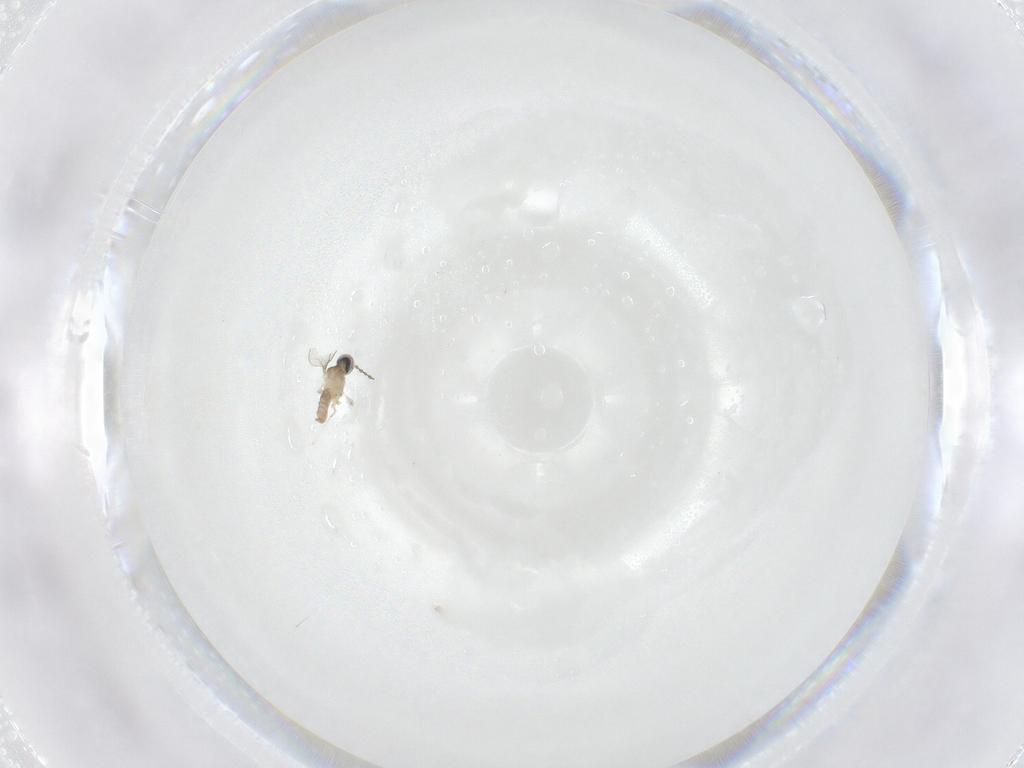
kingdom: Animalia
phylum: Arthropoda
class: Insecta
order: Diptera
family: Cecidomyiidae
